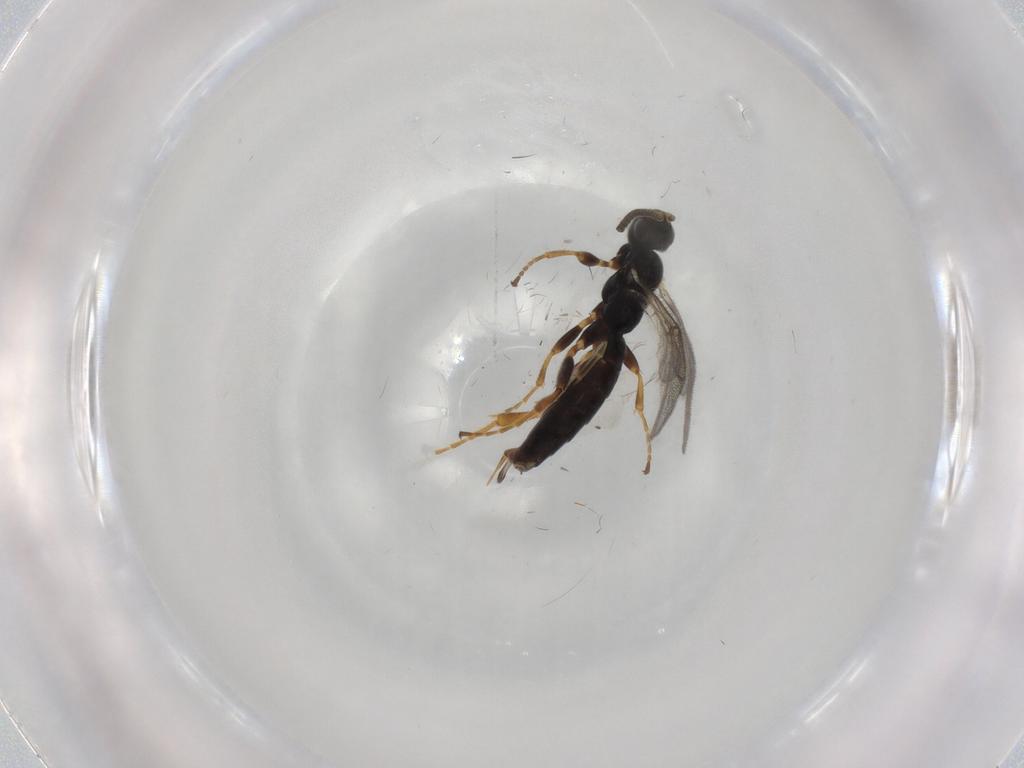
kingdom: Animalia
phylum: Arthropoda
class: Insecta
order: Hymenoptera
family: Ichneumonidae
